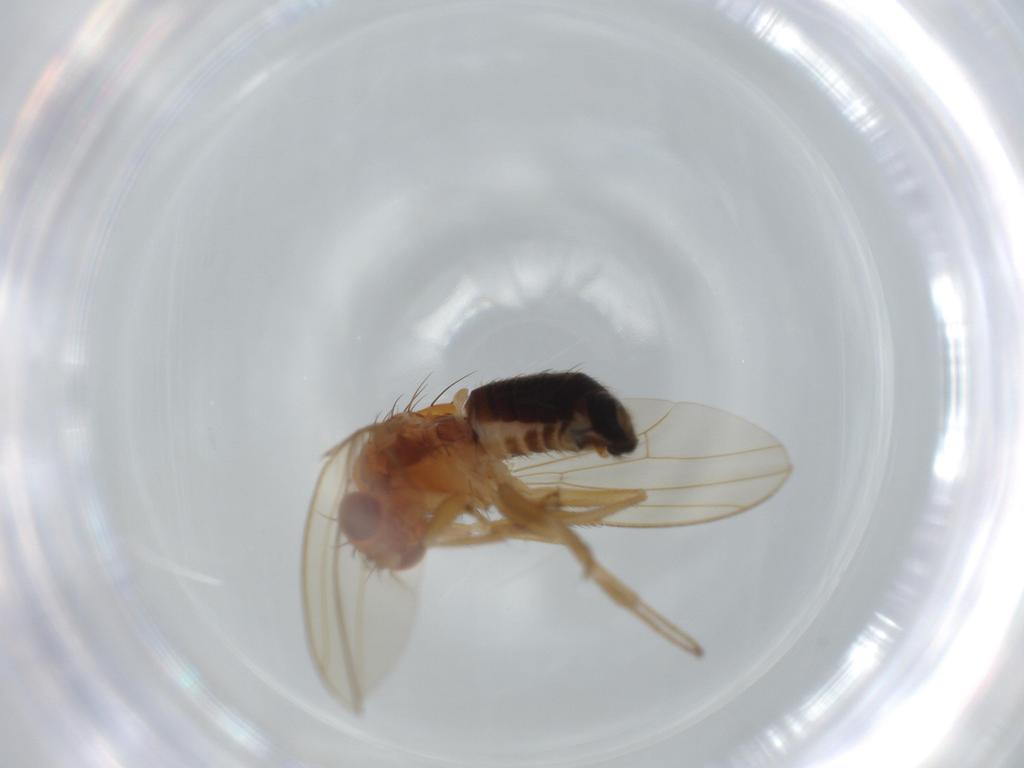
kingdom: Animalia
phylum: Arthropoda
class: Insecta
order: Diptera
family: Drosophilidae
